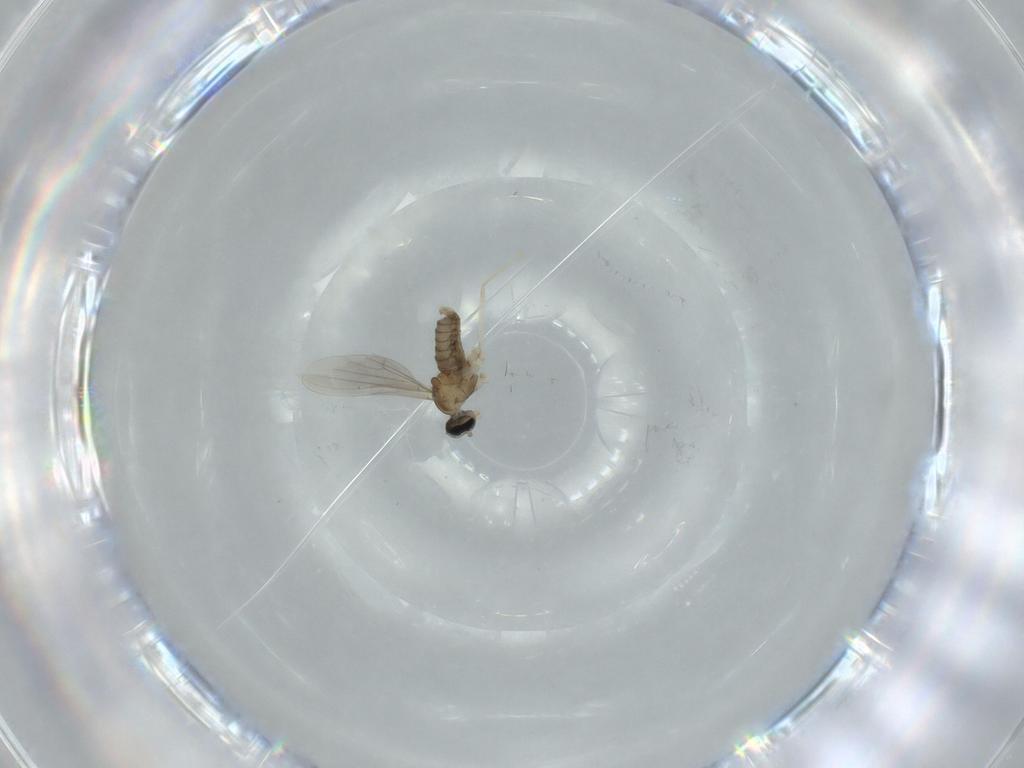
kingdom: Animalia
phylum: Arthropoda
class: Insecta
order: Diptera
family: Cecidomyiidae
